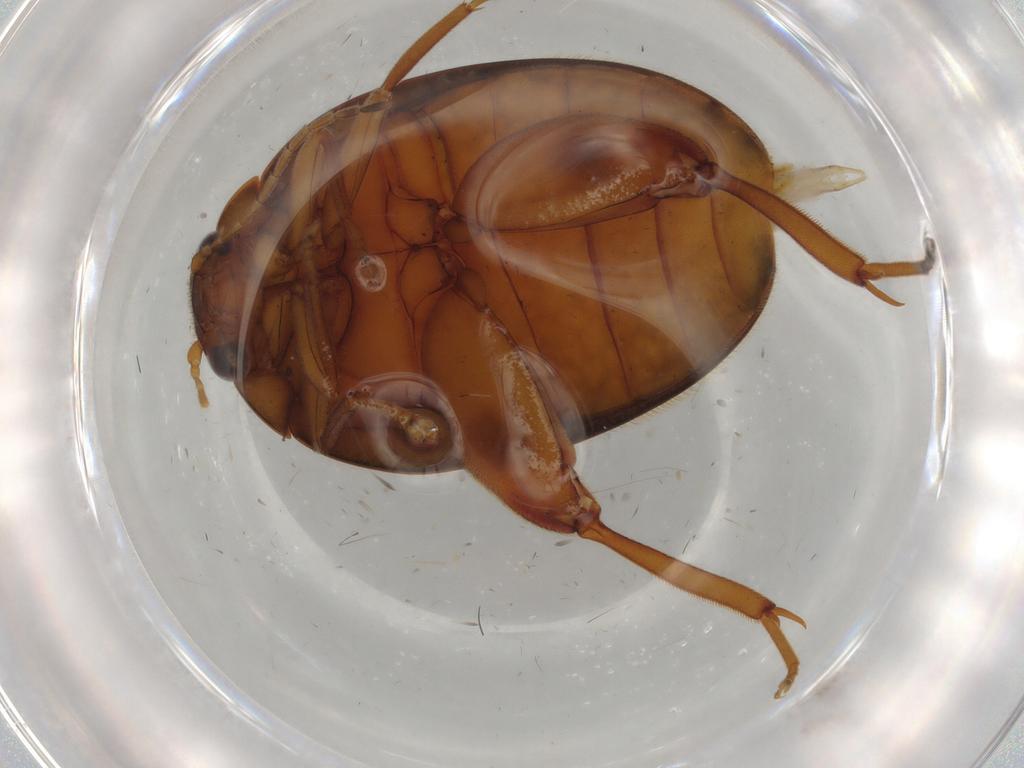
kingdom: Animalia
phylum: Arthropoda
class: Insecta
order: Coleoptera
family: Scirtidae
